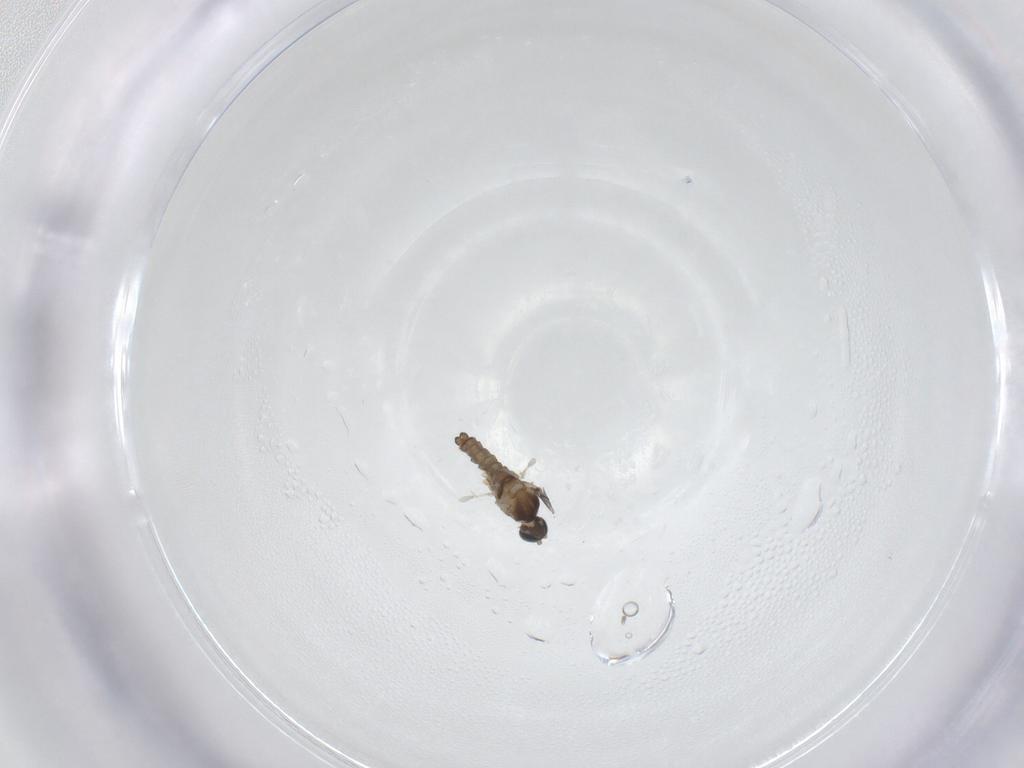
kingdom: Animalia
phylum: Arthropoda
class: Insecta
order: Diptera
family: Cecidomyiidae
